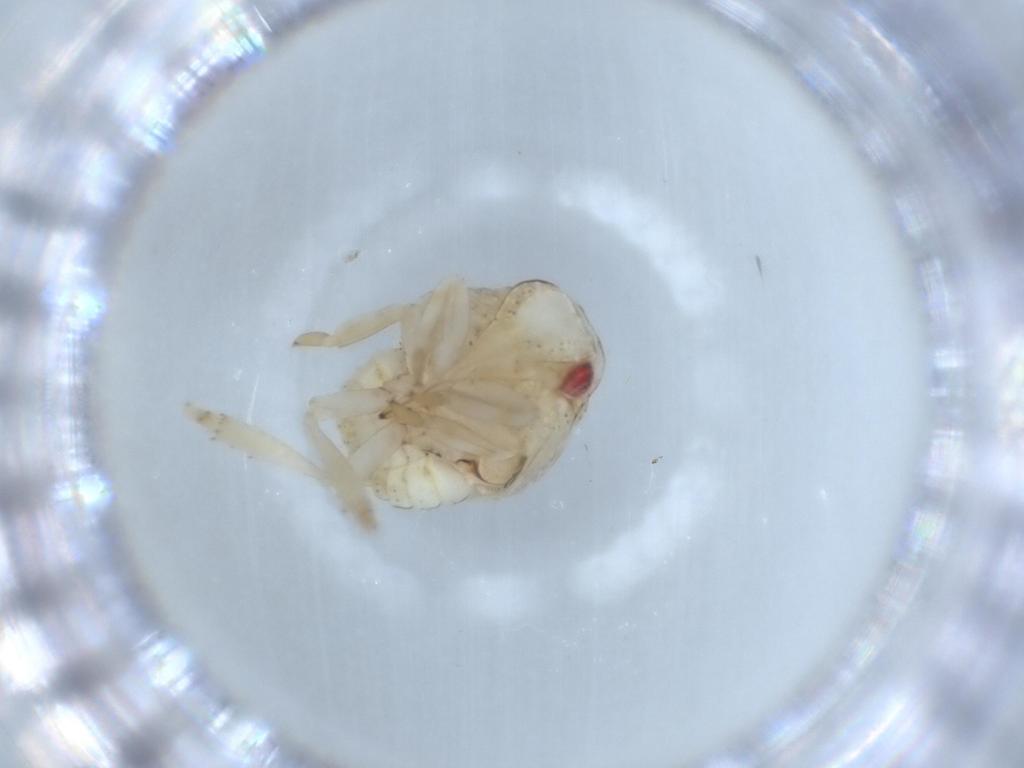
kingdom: Animalia
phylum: Arthropoda
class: Insecta
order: Hemiptera
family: Acanaloniidae
